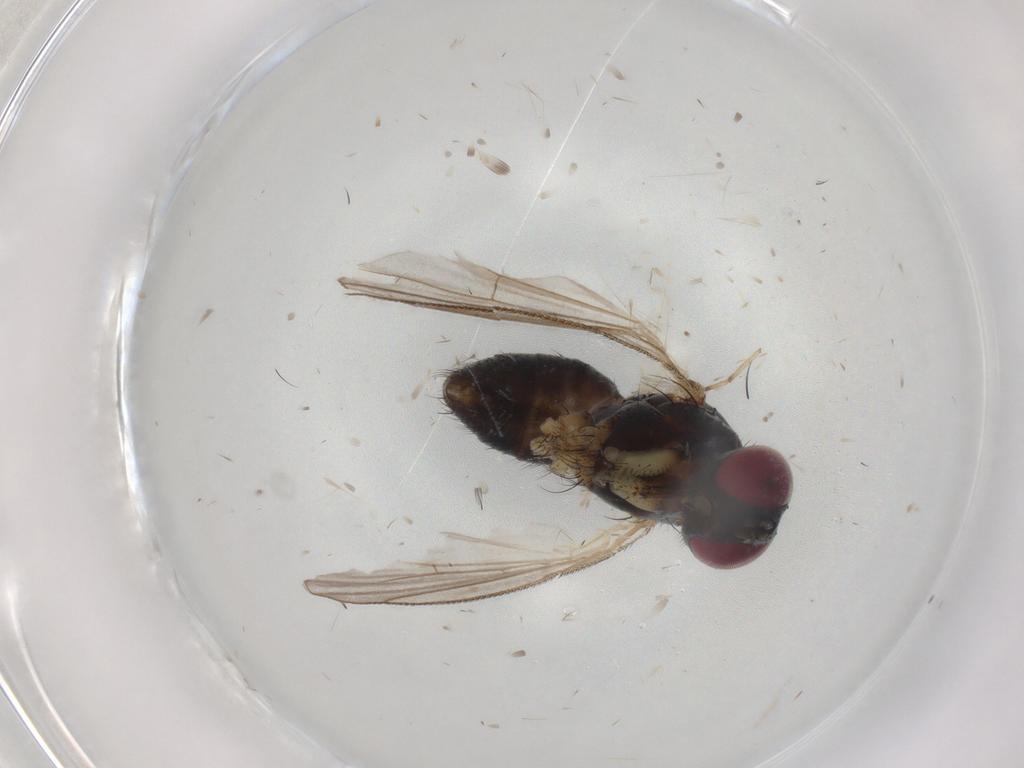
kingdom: Animalia
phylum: Arthropoda
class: Insecta
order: Diptera
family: Muscidae
